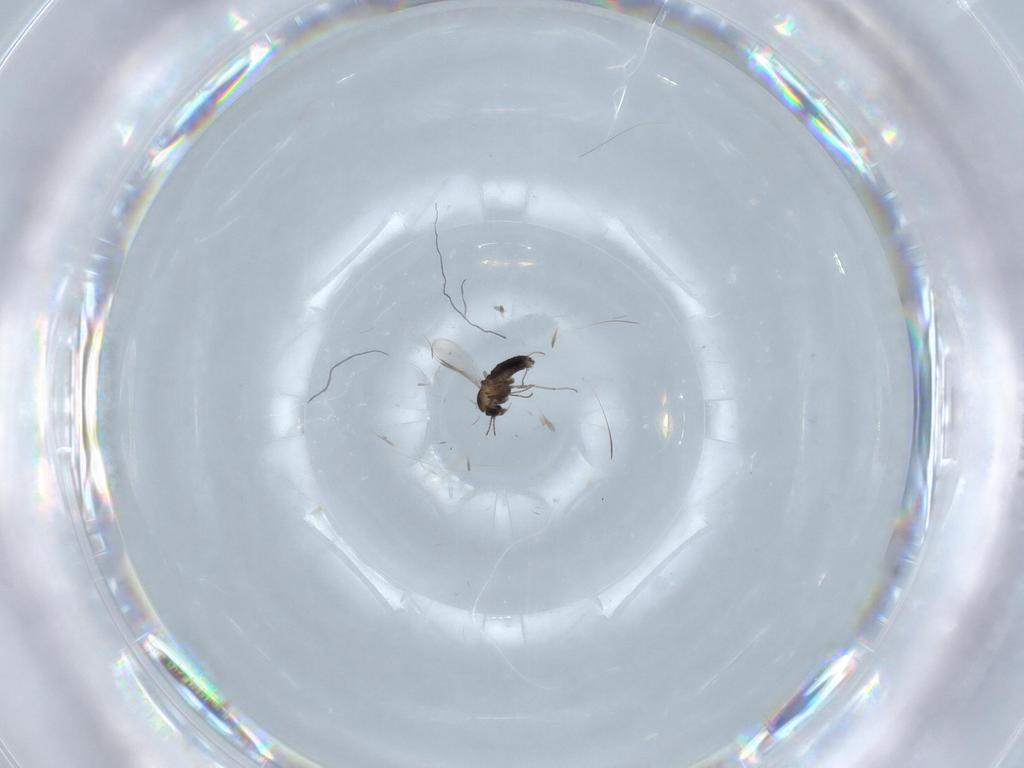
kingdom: Animalia
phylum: Arthropoda
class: Insecta
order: Diptera
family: Chironomidae
